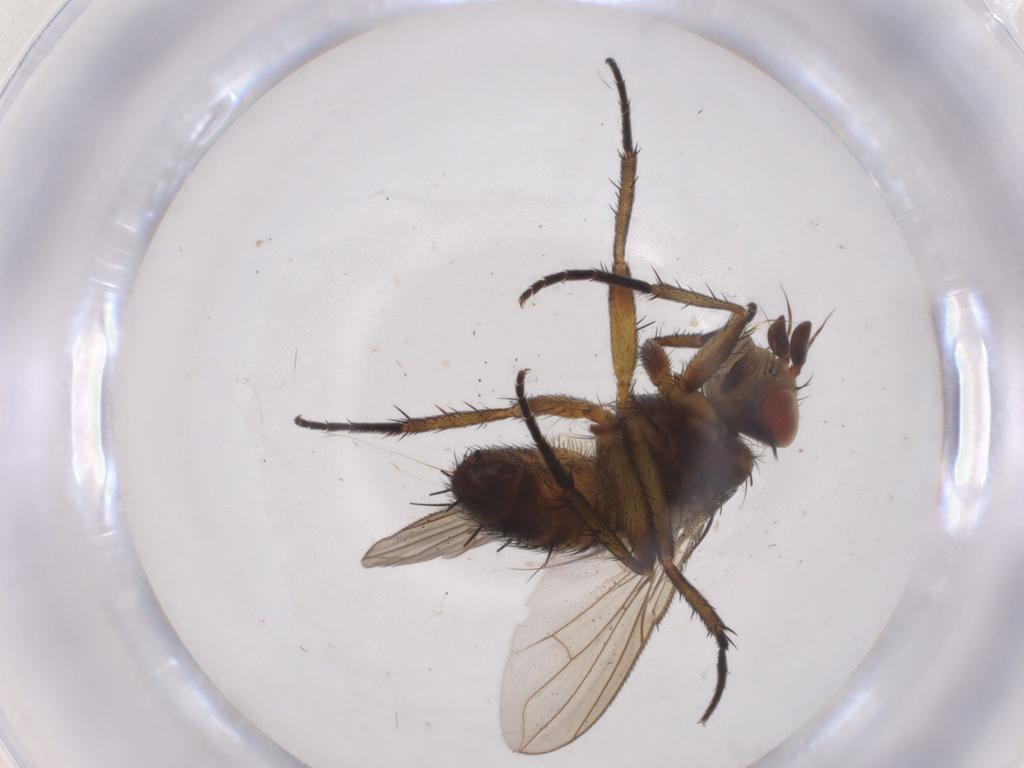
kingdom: Animalia
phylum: Arthropoda
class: Insecta
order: Diptera
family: Tachinidae
